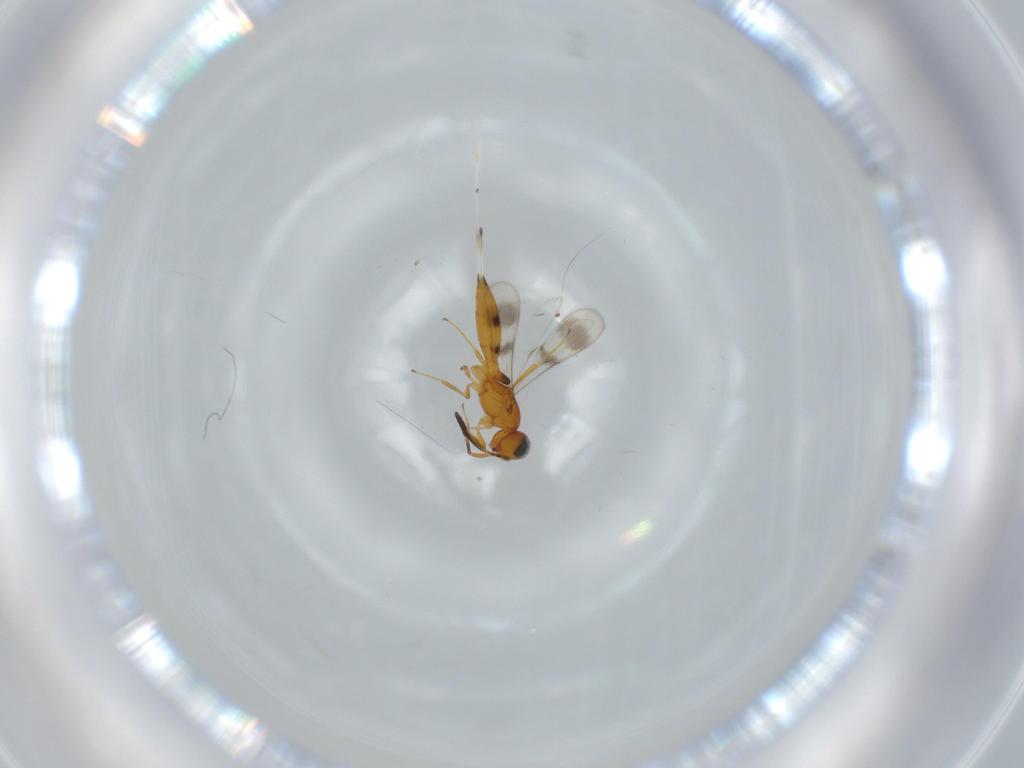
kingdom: Animalia
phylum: Arthropoda
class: Insecta
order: Hymenoptera
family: Scelionidae
